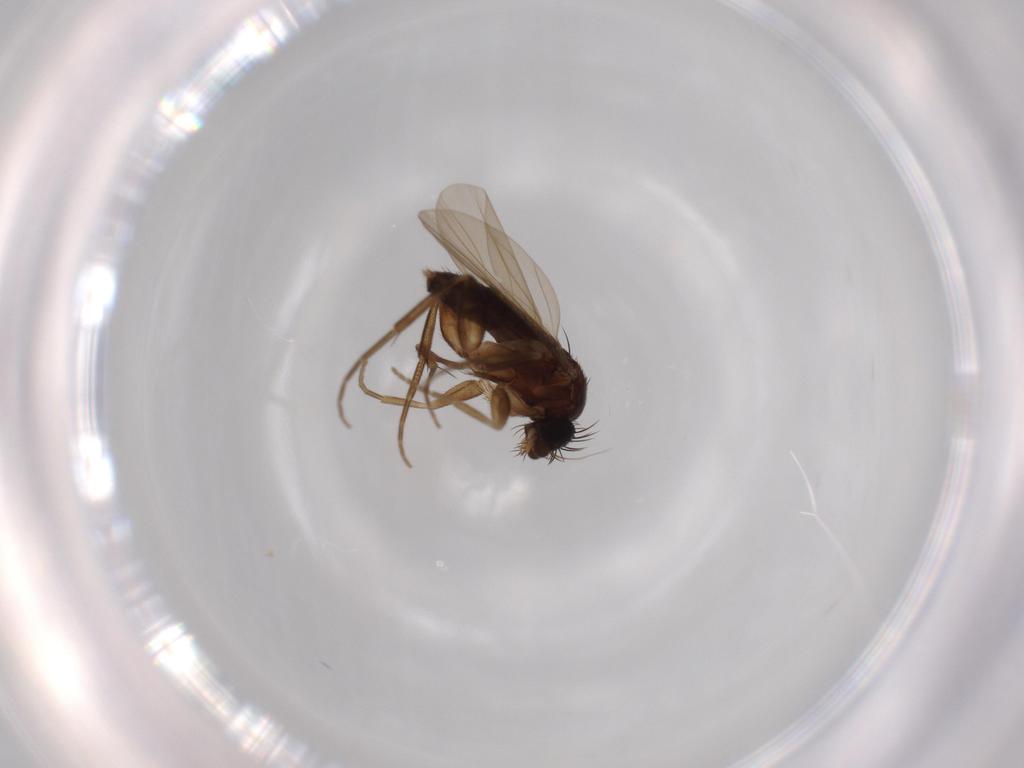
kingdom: Animalia
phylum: Arthropoda
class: Insecta
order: Diptera
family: Phoridae
